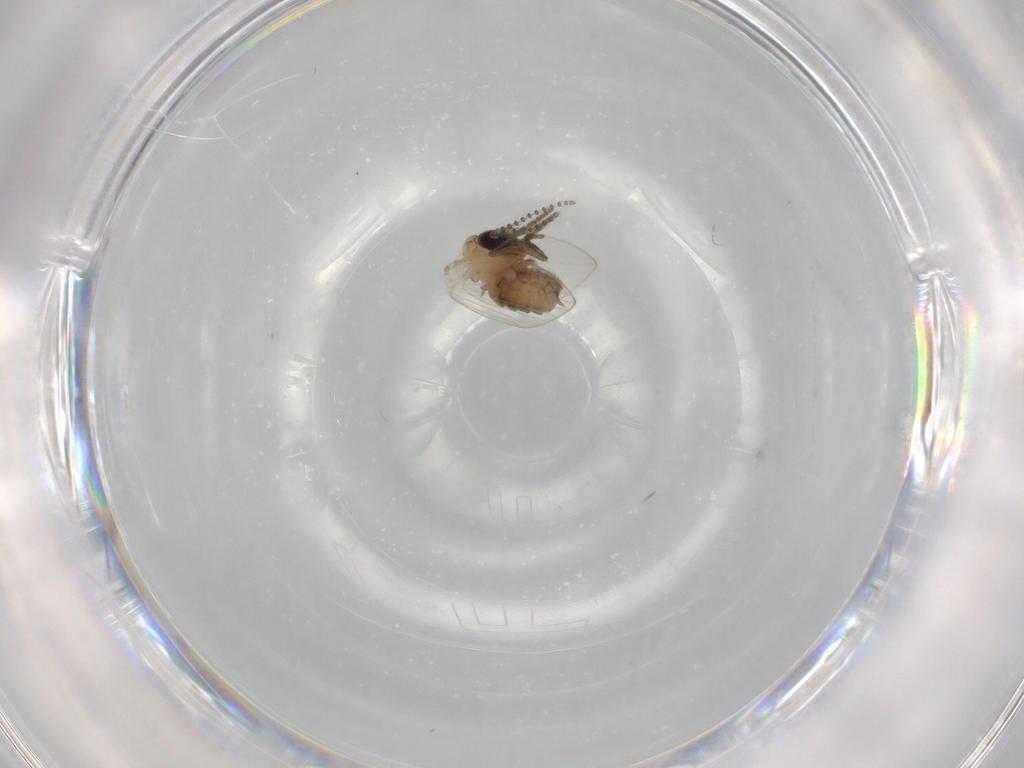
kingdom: Animalia
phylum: Arthropoda
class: Insecta
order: Diptera
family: Psychodidae
